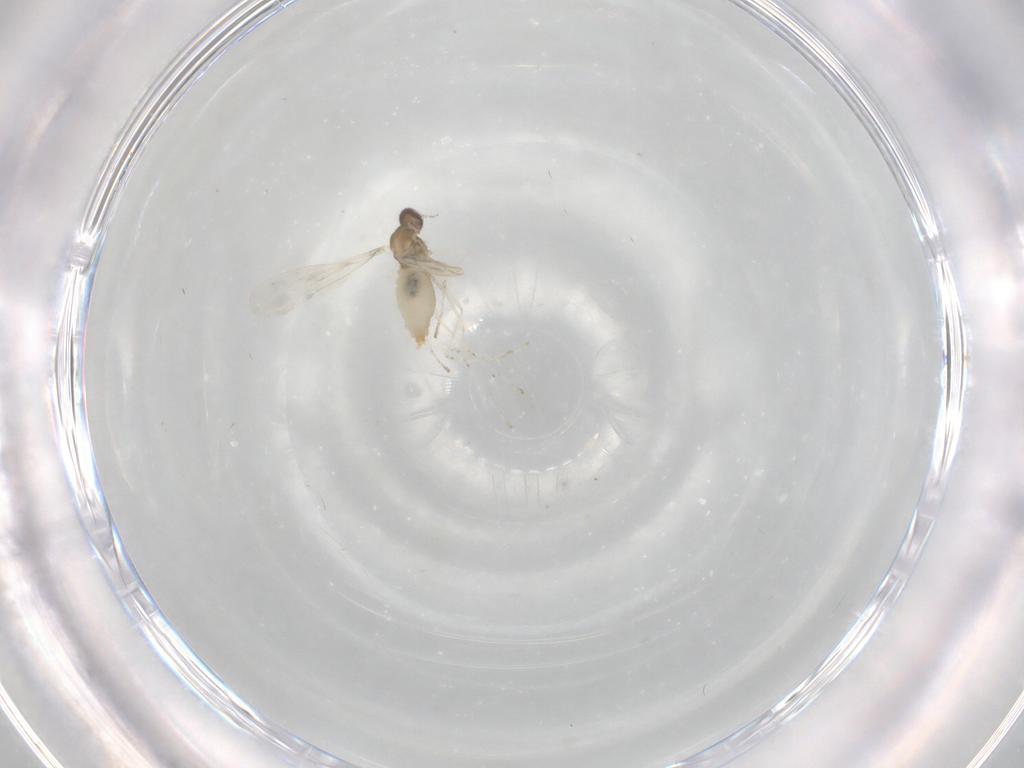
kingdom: Animalia
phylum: Arthropoda
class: Insecta
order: Diptera
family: Cecidomyiidae
